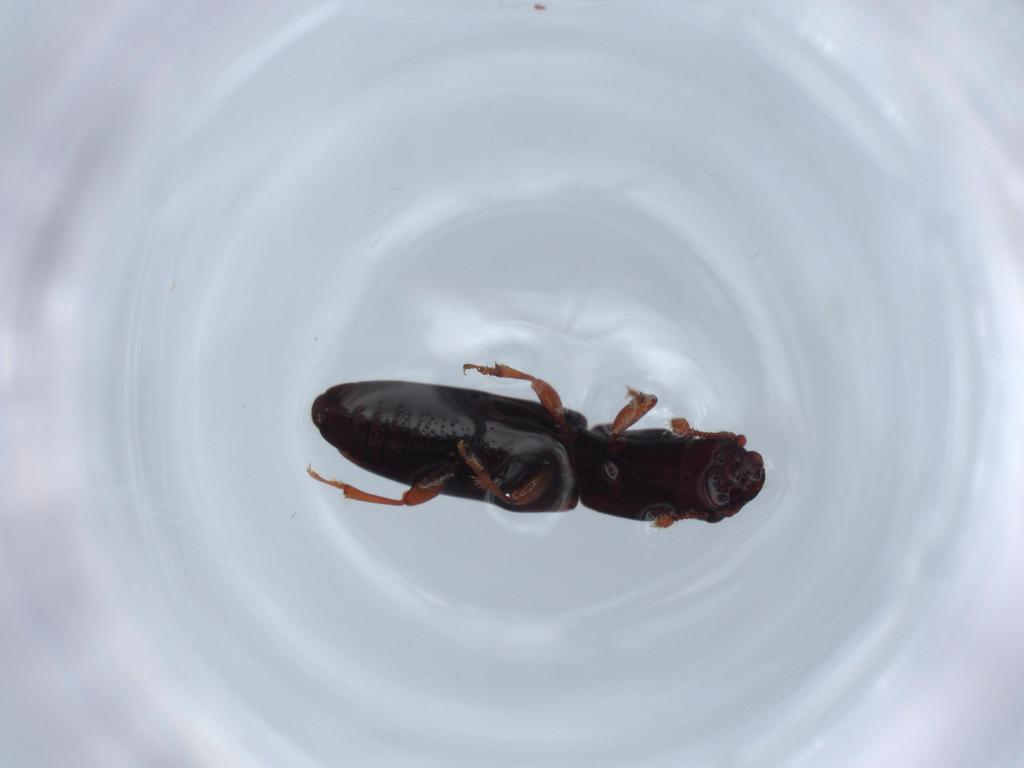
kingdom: Animalia
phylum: Arthropoda
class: Insecta
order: Coleoptera
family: Monotomidae
